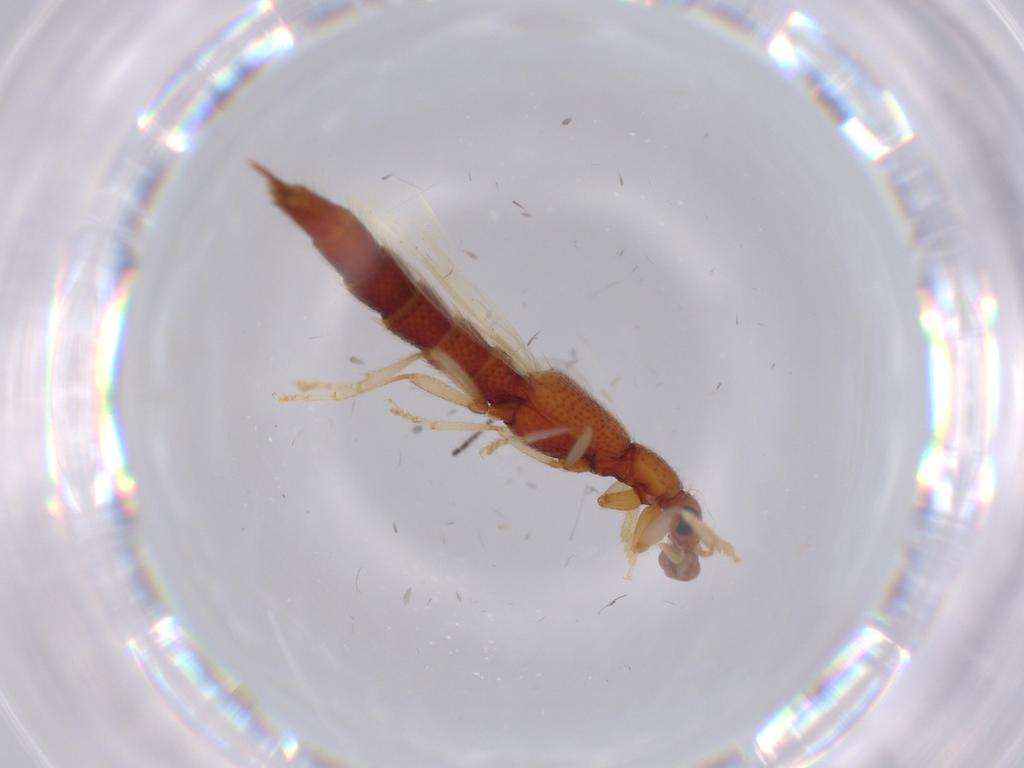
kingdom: Animalia
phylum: Arthropoda
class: Insecta
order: Coleoptera
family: Staphylinidae
